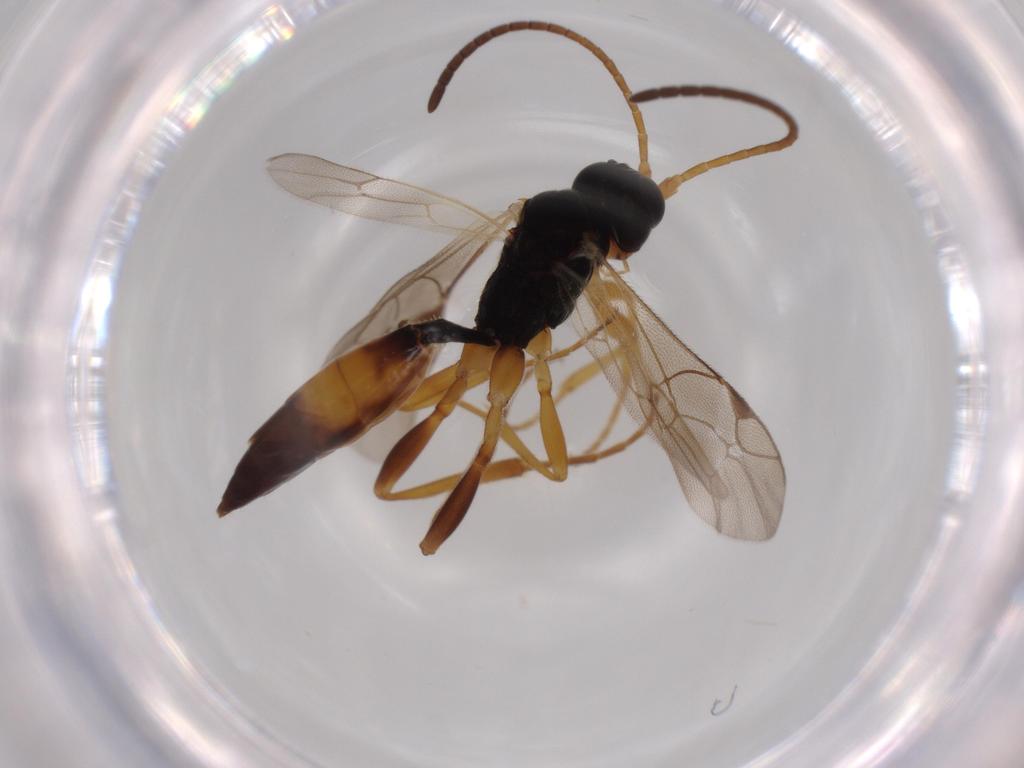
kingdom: Animalia
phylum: Arthropoda
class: Insecta
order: Hymenoptera
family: Ichneumonidae
